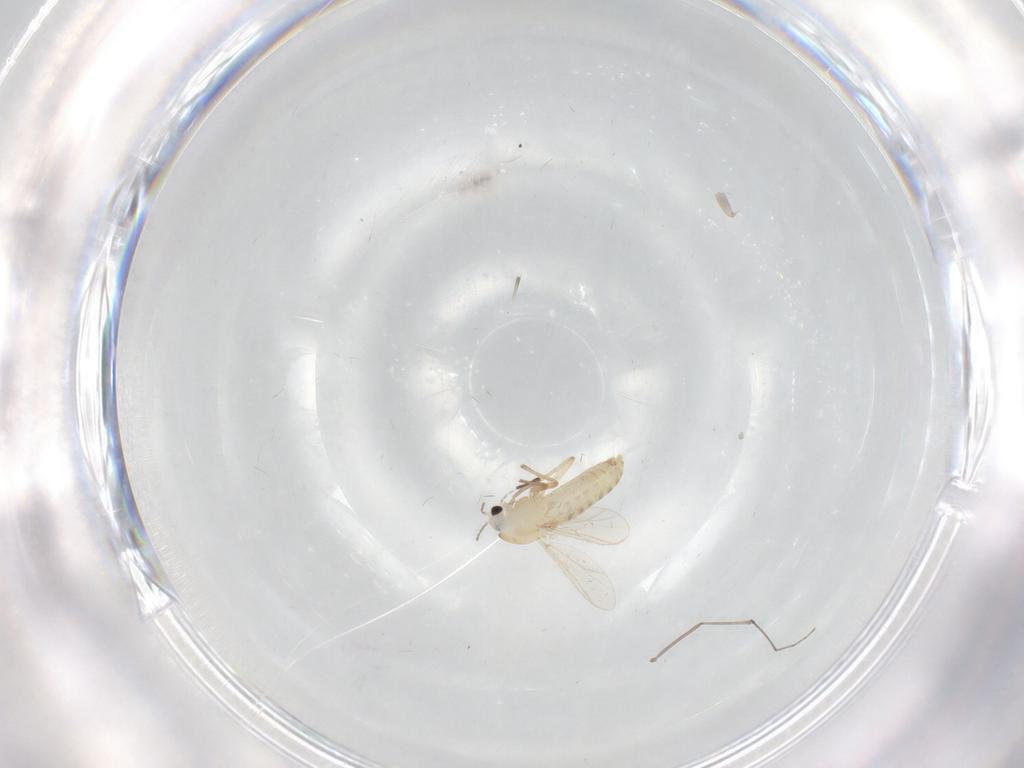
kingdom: Animalia
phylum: Arthropoda
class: Insecta
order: Diptera
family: Chironomidae
